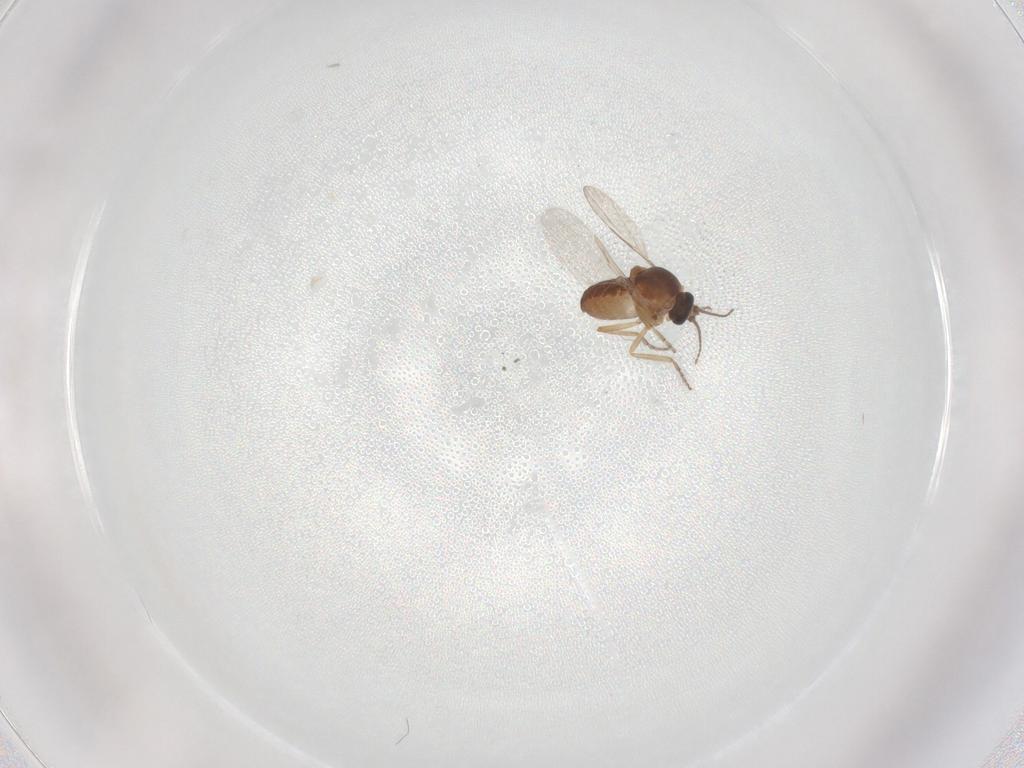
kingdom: Animalia
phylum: Arthropoda
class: Insecta
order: Diptera
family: Ceratopogonidae
